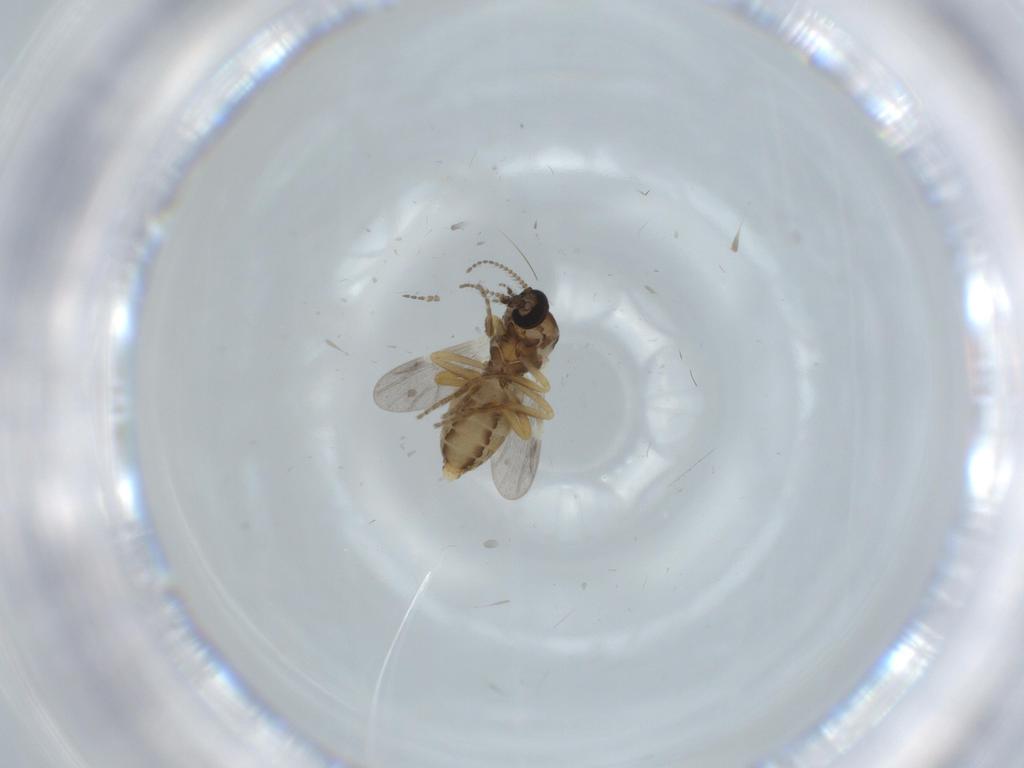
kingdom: Animalia
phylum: Arthropoda
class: Insecta
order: Diptera
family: Ceratopogonidae
